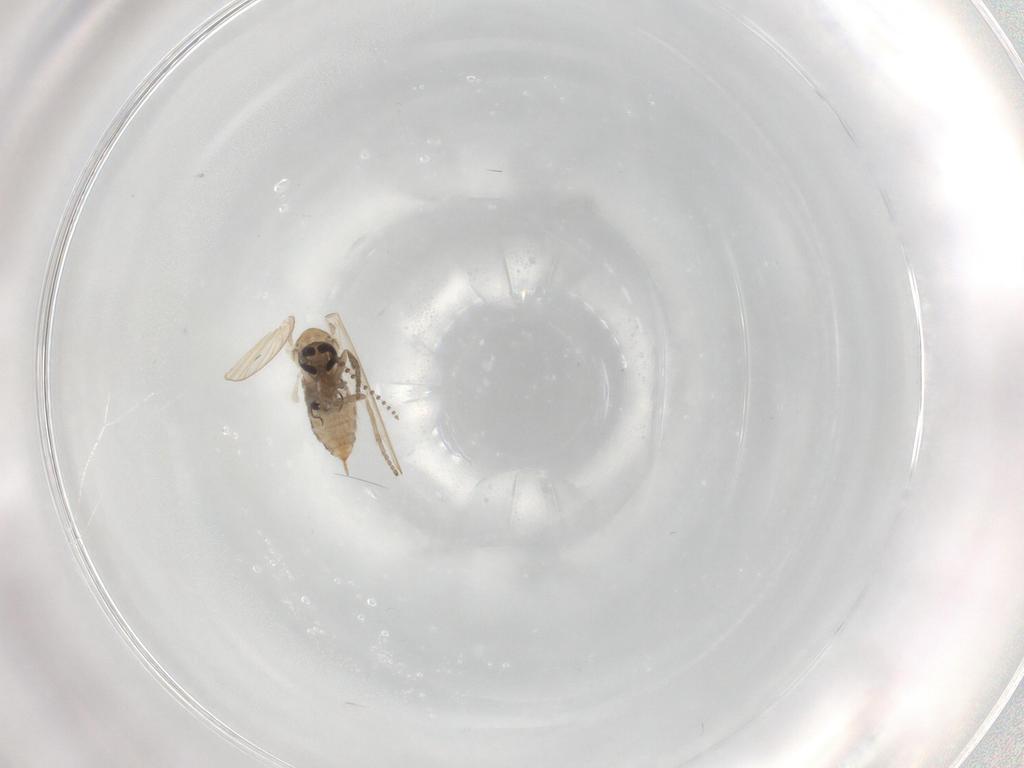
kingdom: Animalia
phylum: Arthropoda
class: Insecta
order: Diptera
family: Psychodidae
